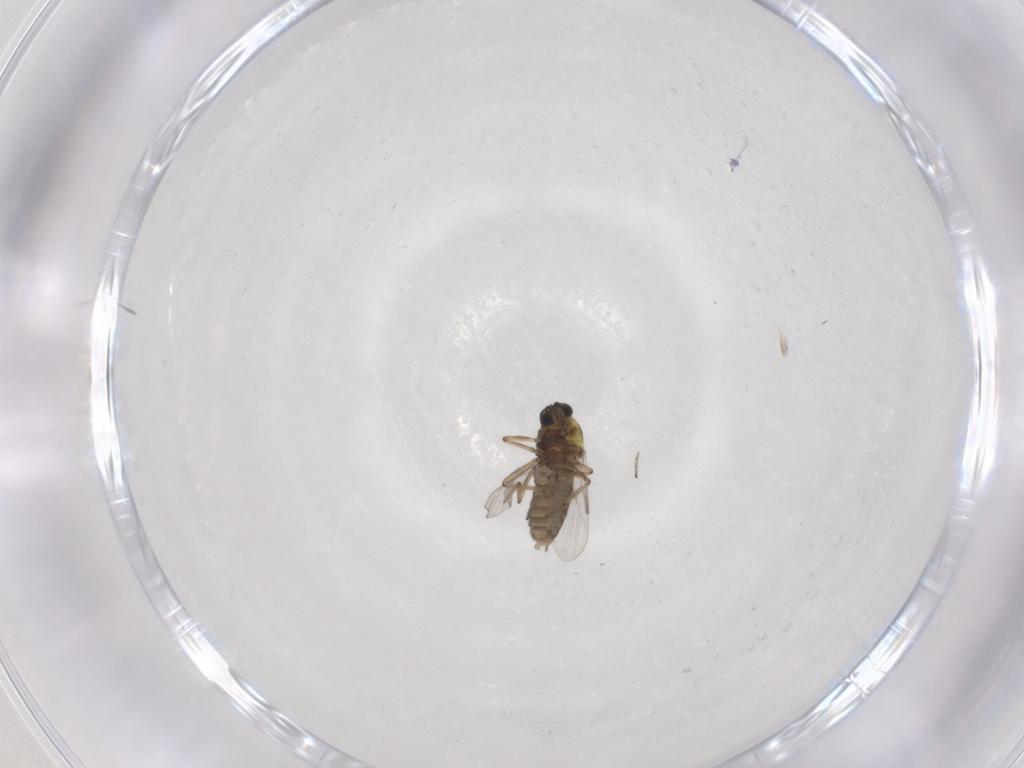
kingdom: Animalia
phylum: Arthropoda
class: Insecta
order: Diptera
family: Cecidomyiidae
